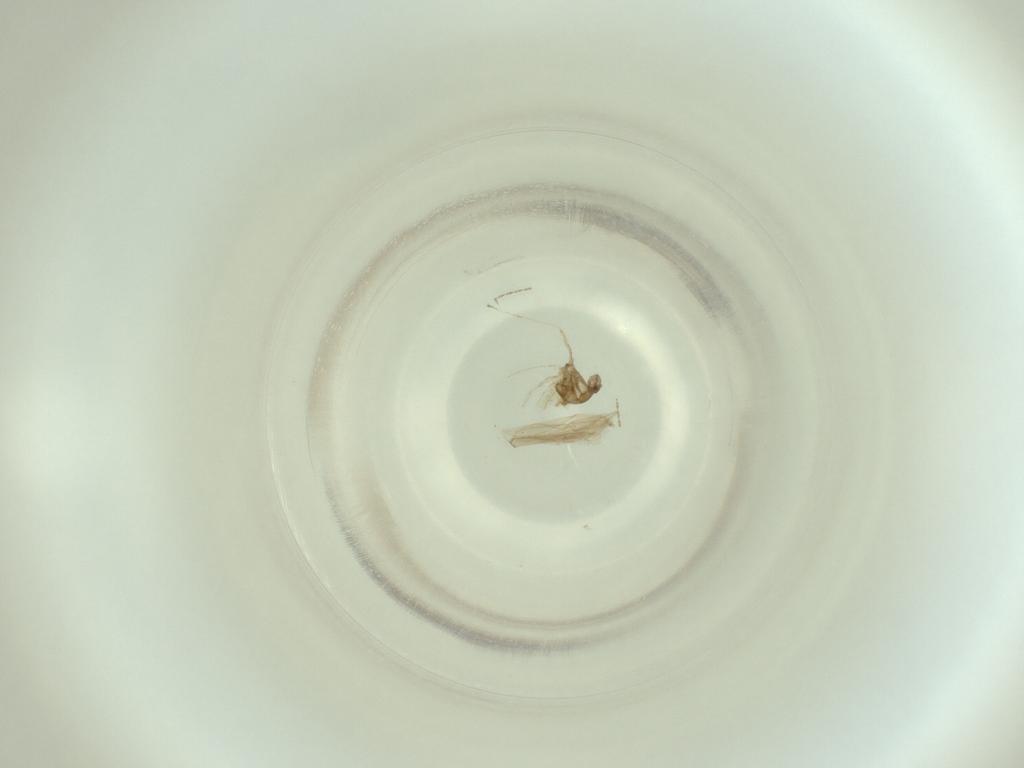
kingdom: Animalia
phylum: Arthropoda
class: Insecta
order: Diptera
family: Cecidomyiidae
